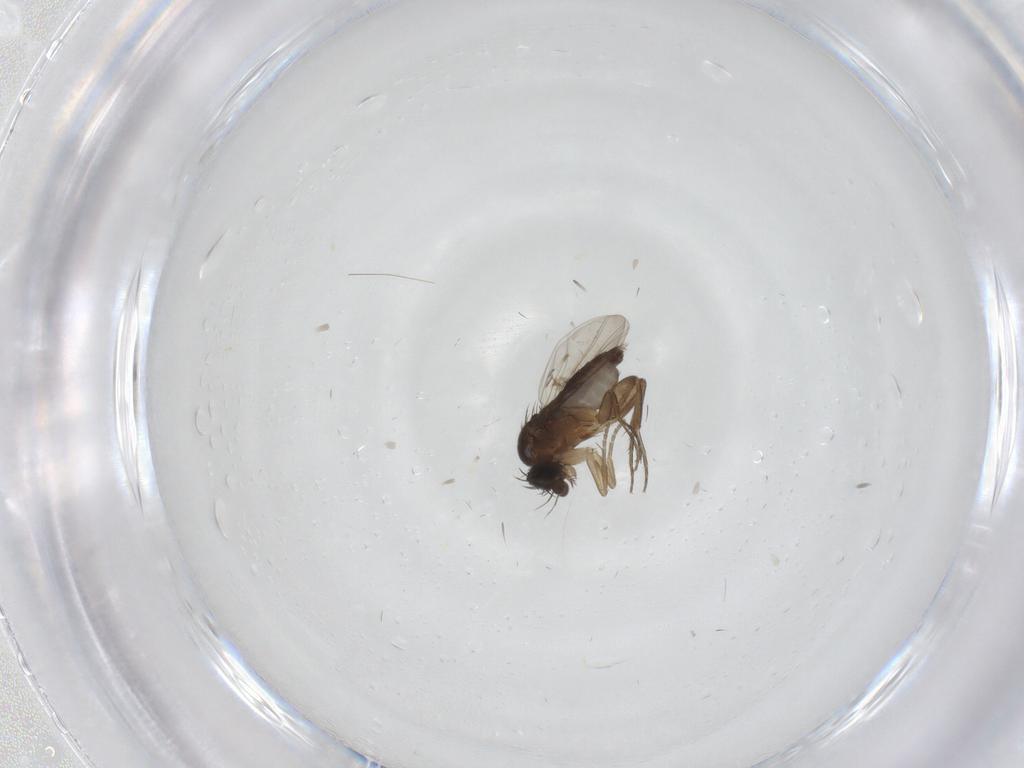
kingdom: Animalia
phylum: Arthropoda
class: Insecta
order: Diptera
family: Phoridae
